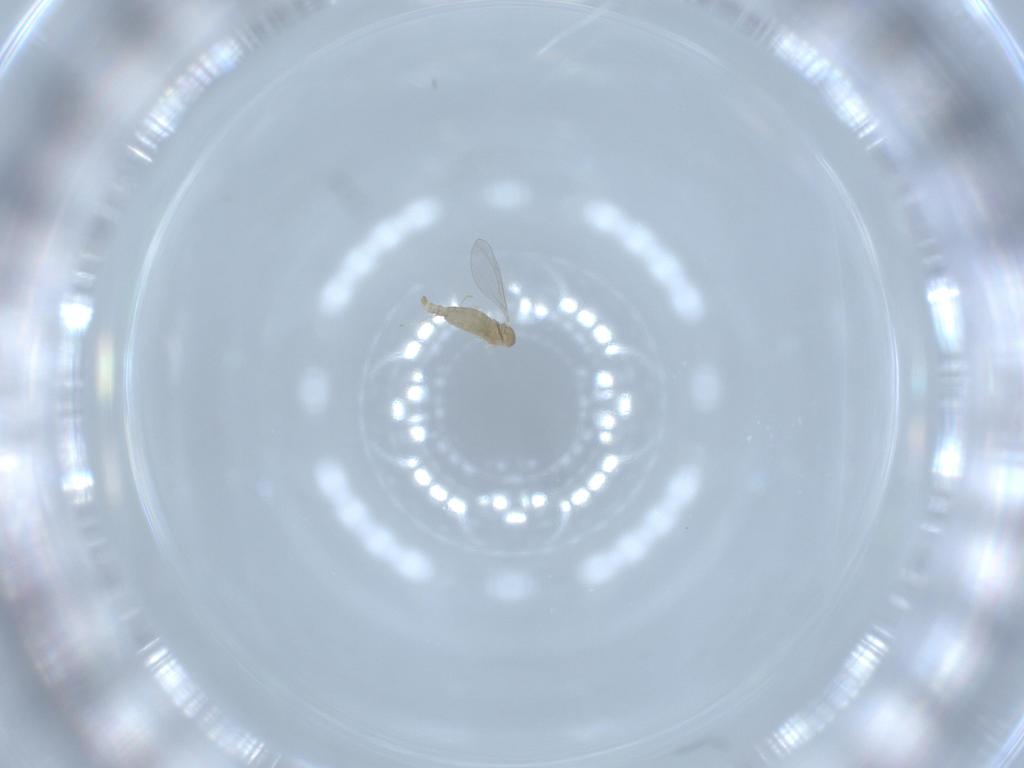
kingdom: Animalia
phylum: Arthropoda
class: Insecta
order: Diptera
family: Cecidomyiidae
